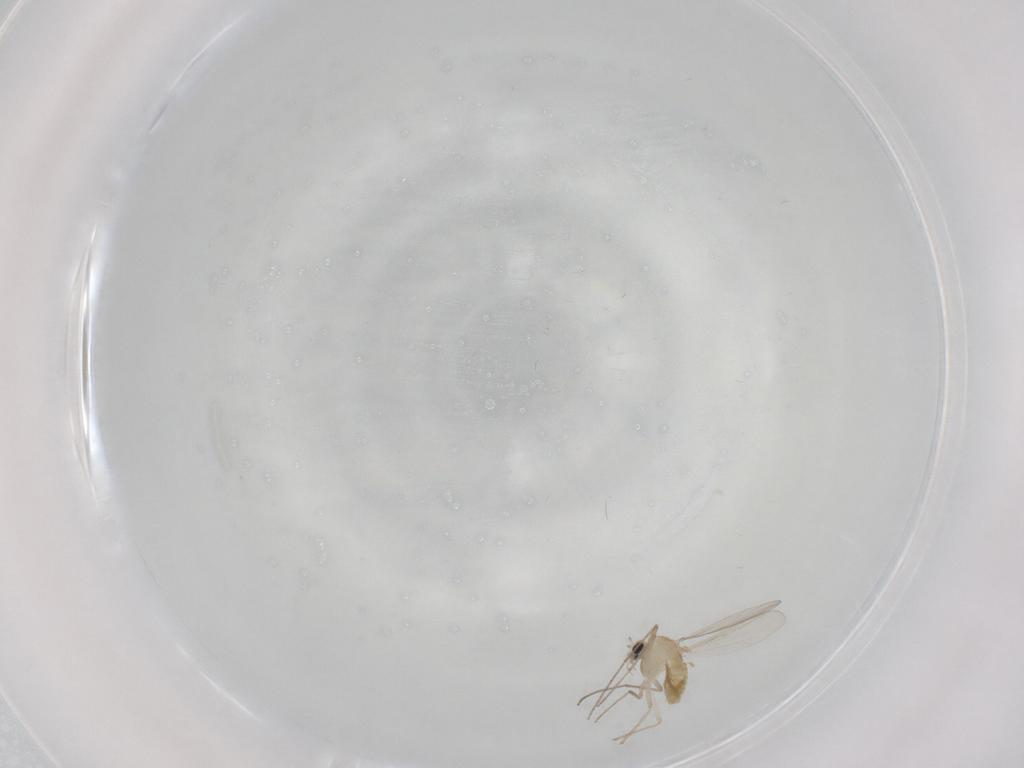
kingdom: Animalia
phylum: Arthropoda
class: Insecta
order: Diptera
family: Chironomidae
